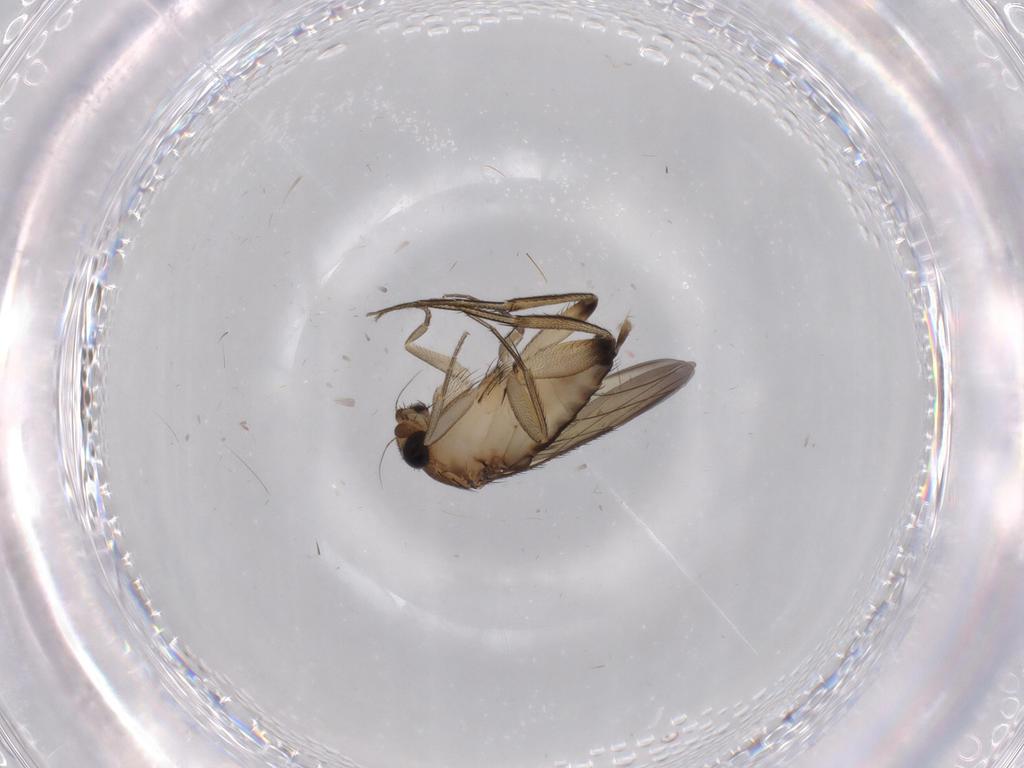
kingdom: Animalia
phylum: Arthropoda
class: Insecta
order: Diptera
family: Phoridae
